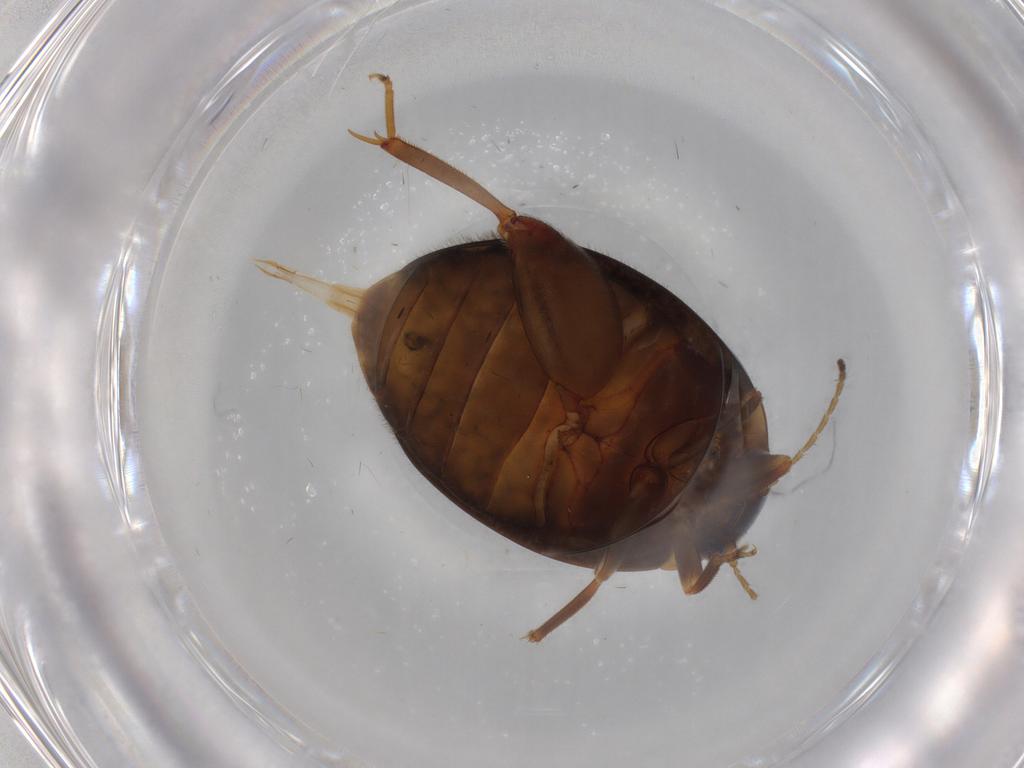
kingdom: Animalia
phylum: Arthropoda
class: Insecta
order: Coleoptera
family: Scirtidae
